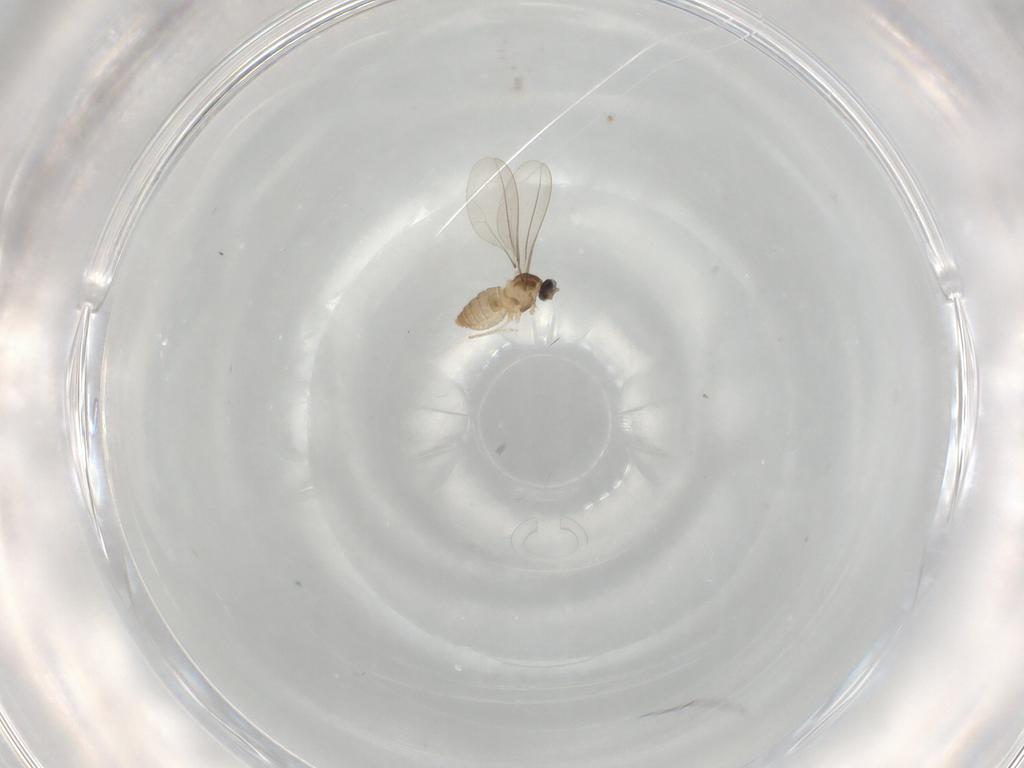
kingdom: Animalia
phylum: Arthropoda
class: Insecta
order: Diptera
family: Cecidomyiidae
